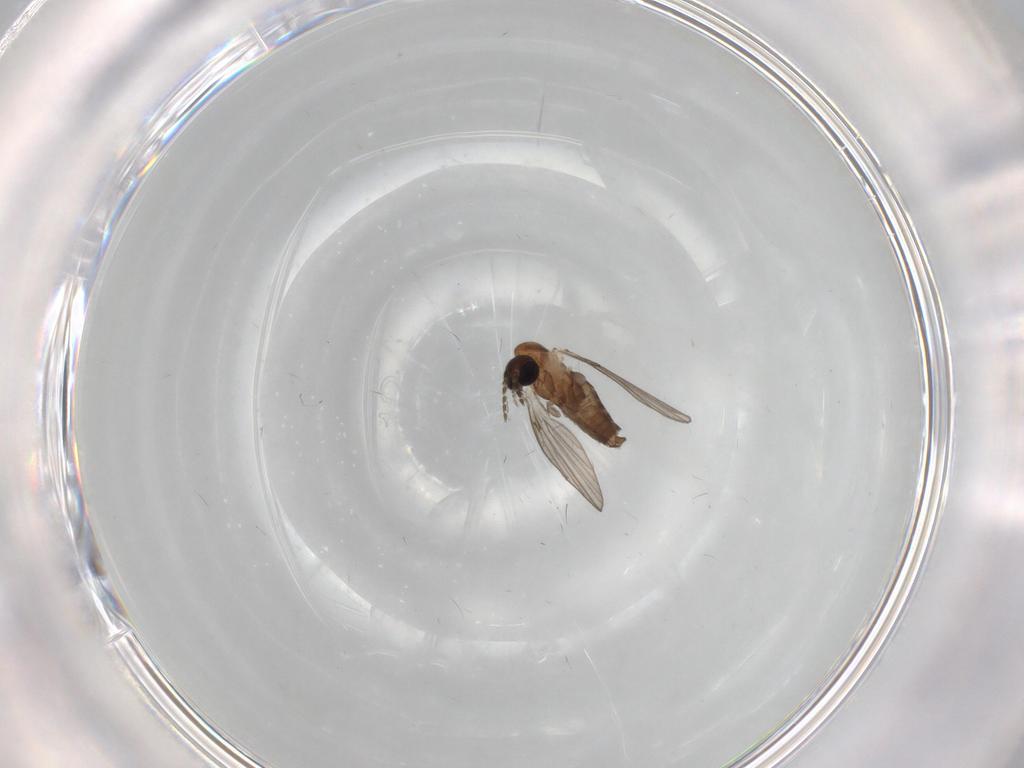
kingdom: Animalia
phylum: Arthropoda
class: Insecta
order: Diptera
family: Psychodidae
